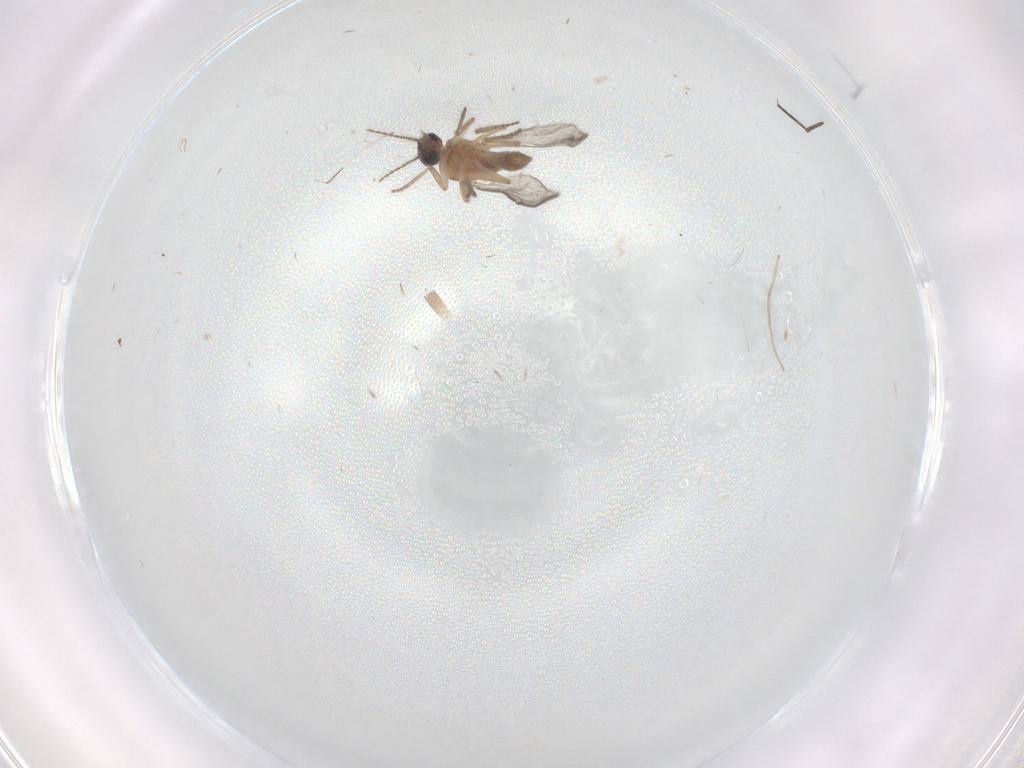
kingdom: Animalia
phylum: Arthropoda
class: Insecta
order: Diptera
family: Ceratopogonidae
